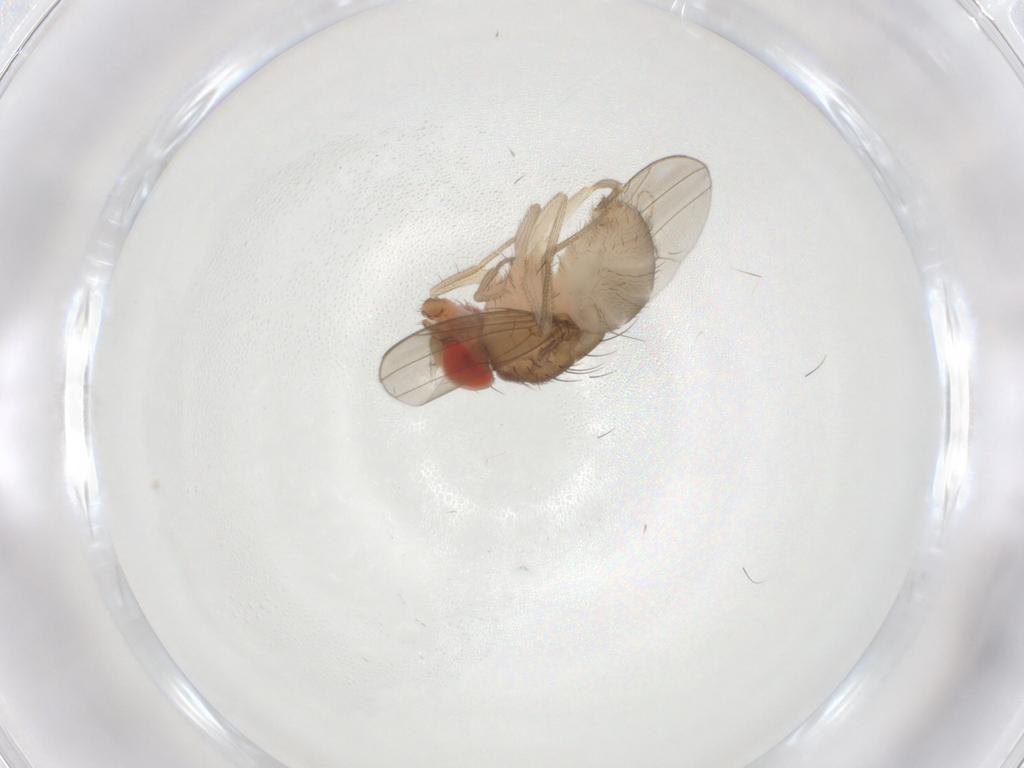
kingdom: Animalia
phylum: Arthropoda
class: Insecta
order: Diptera
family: Drosophilidae
